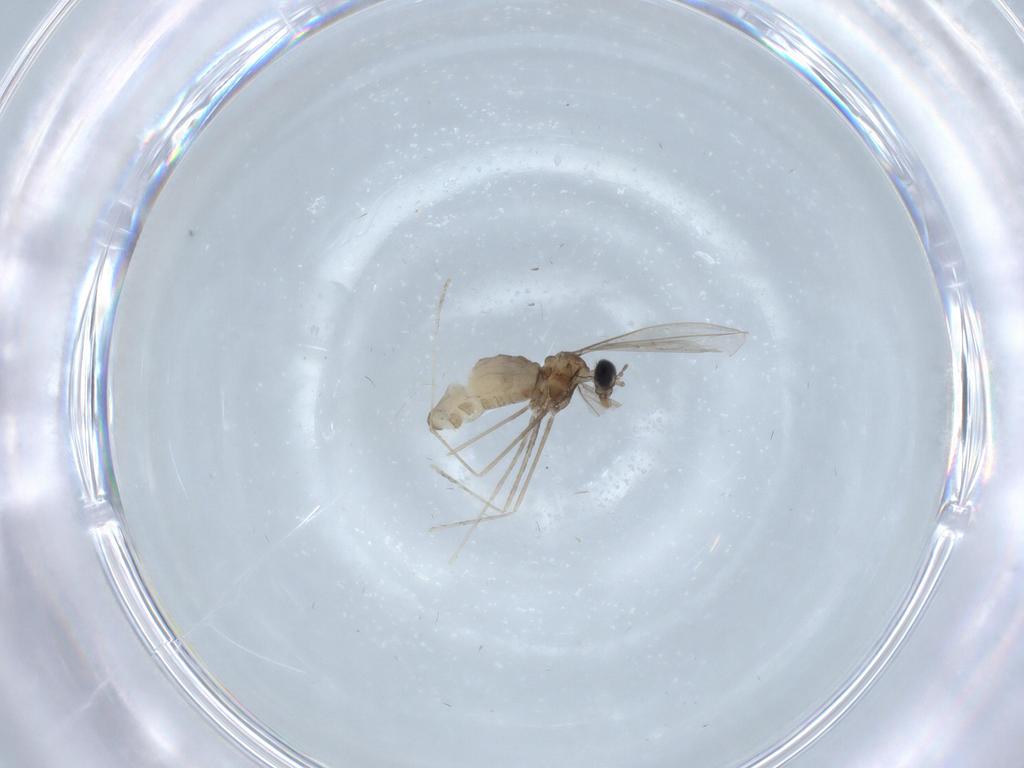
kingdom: Animalia
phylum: Arthropoda
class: Insecta
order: Diptera
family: Cecidomyiidae
